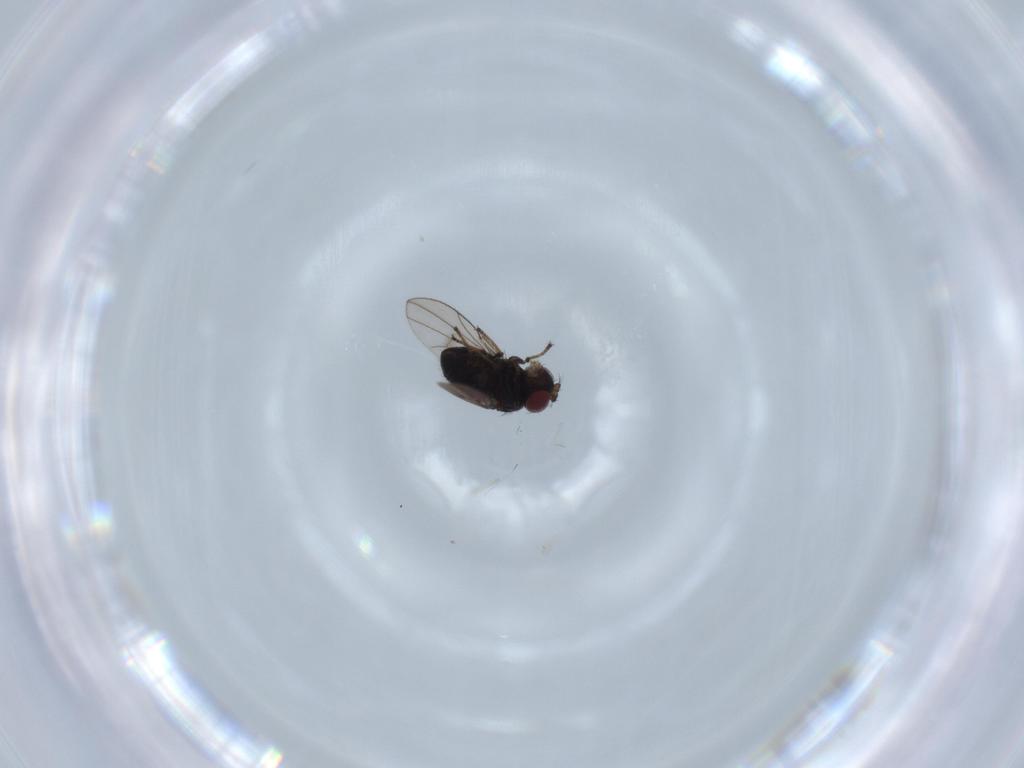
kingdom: Animalia
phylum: Arthropoda
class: Insecta
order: Diptera
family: Ephydridae
